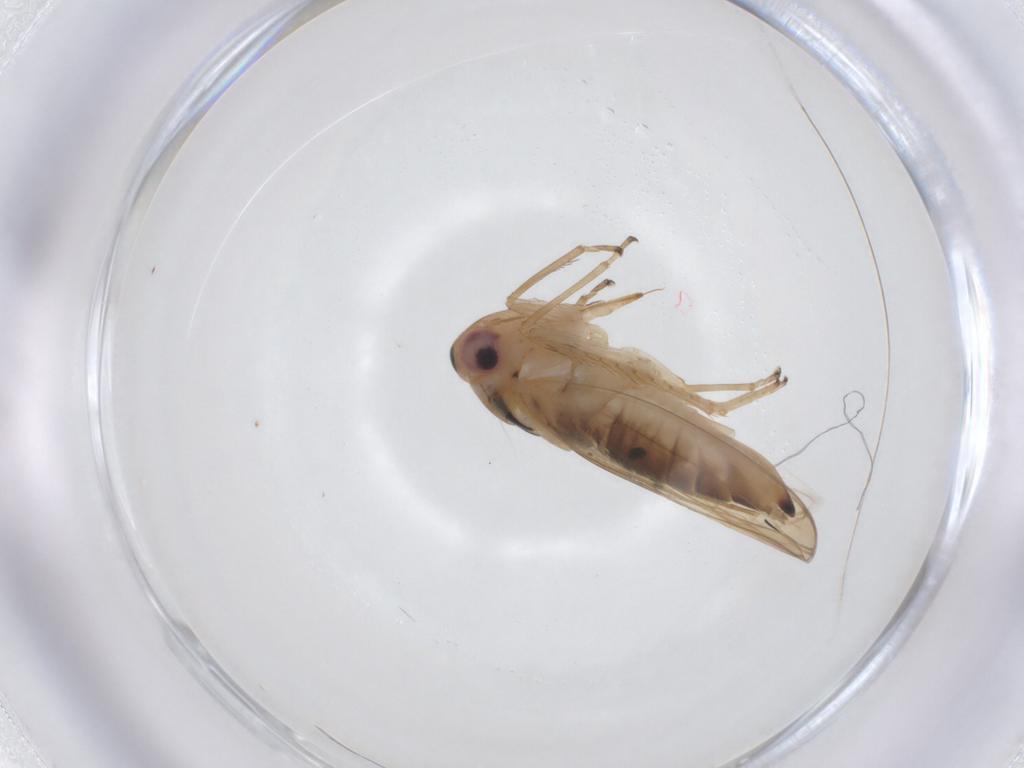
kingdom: Animalia
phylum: Arthropoda
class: Insecta
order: Hemiptera
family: Cicadellidae
